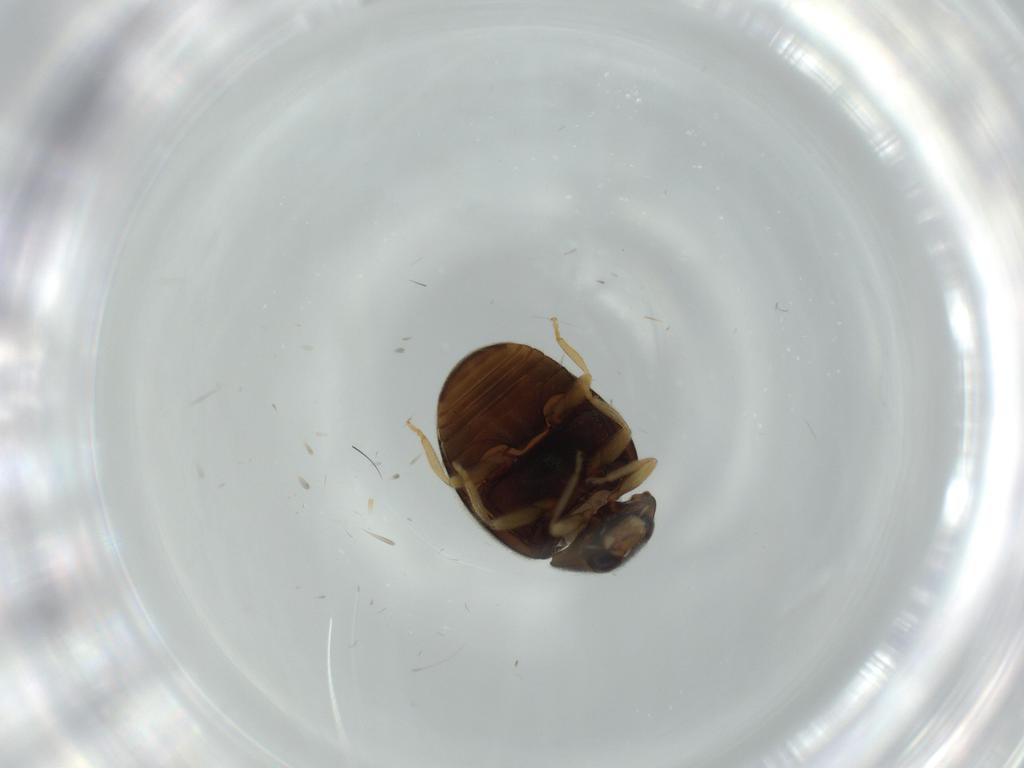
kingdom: Animalia
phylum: Arthropoda
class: Insecta
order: Coleoptera
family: Coccinellidae
